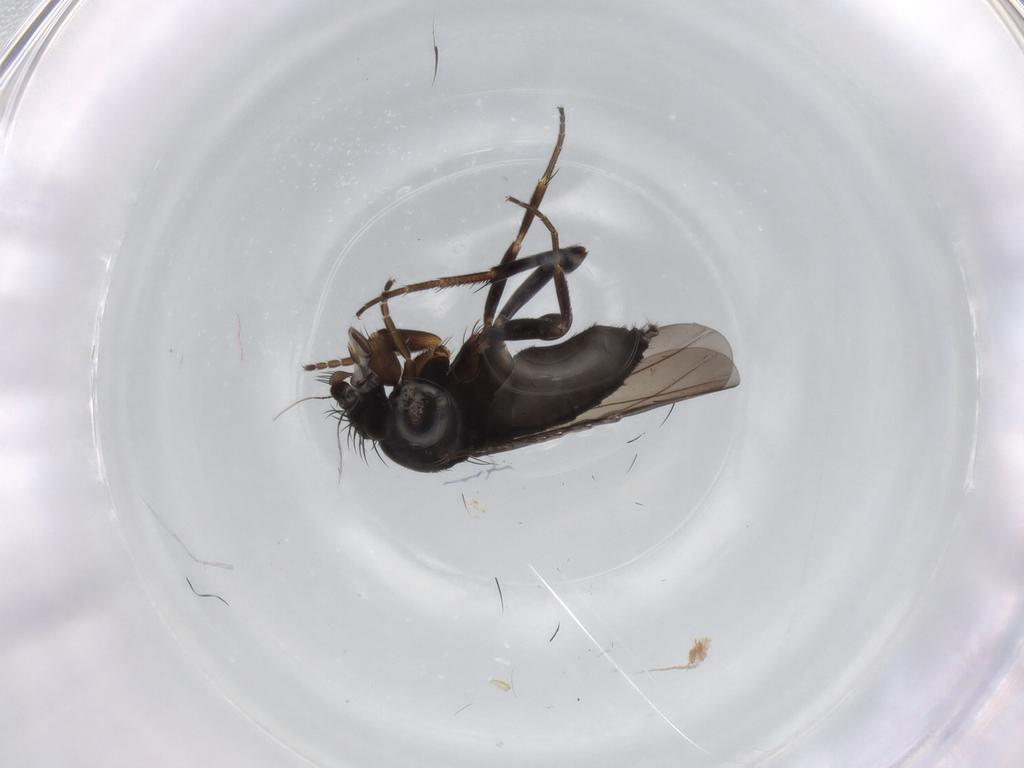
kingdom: Animalia
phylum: Arthropoda
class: Insecta
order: Diptera
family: Phoridae
